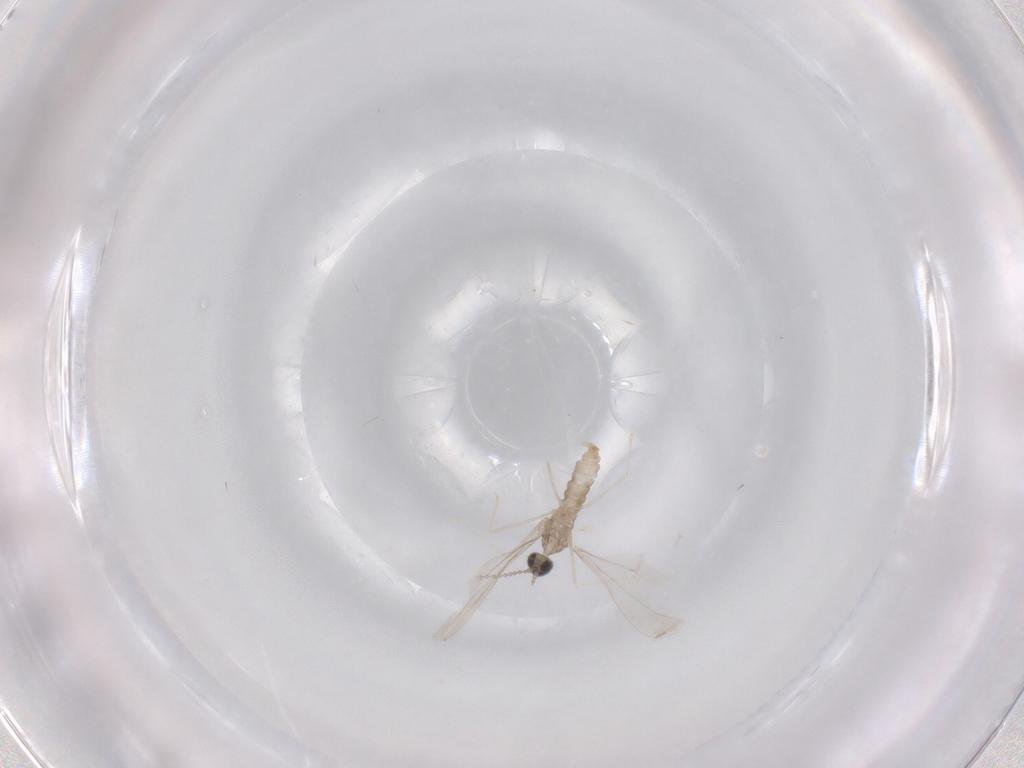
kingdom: Animalia
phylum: Arthropoda
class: Insecta
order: Diptera
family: Cecidomyiidae
